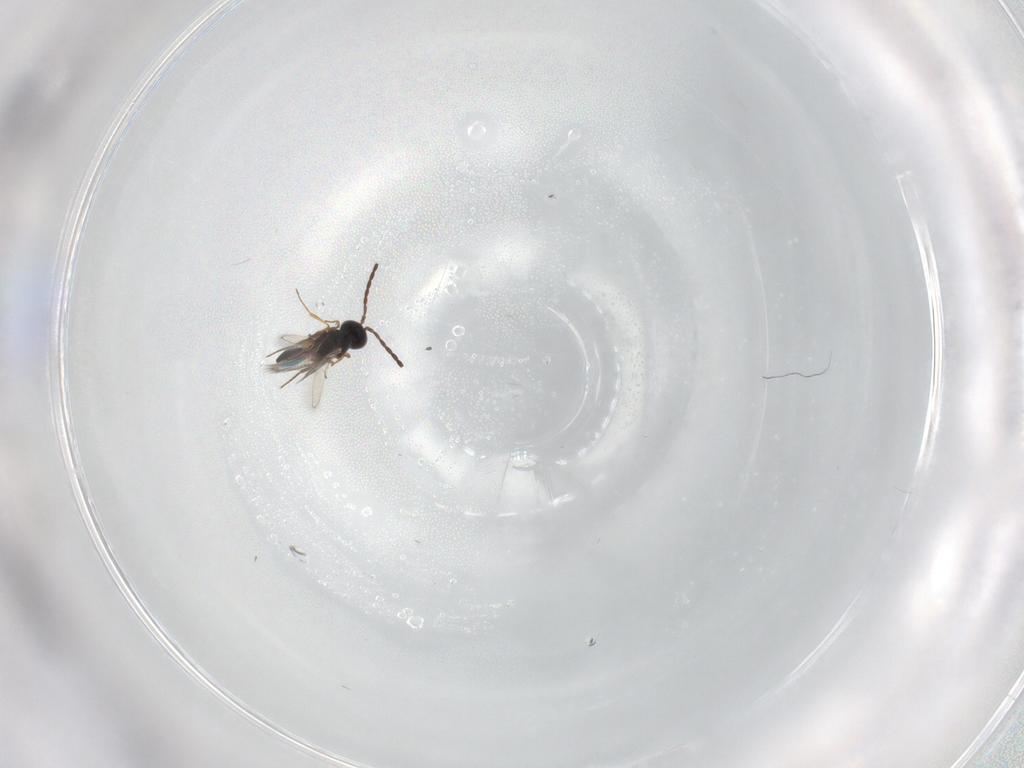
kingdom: Animalia
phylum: Arthropoda
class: Insecta
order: Hymenoptera
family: Figitidae
